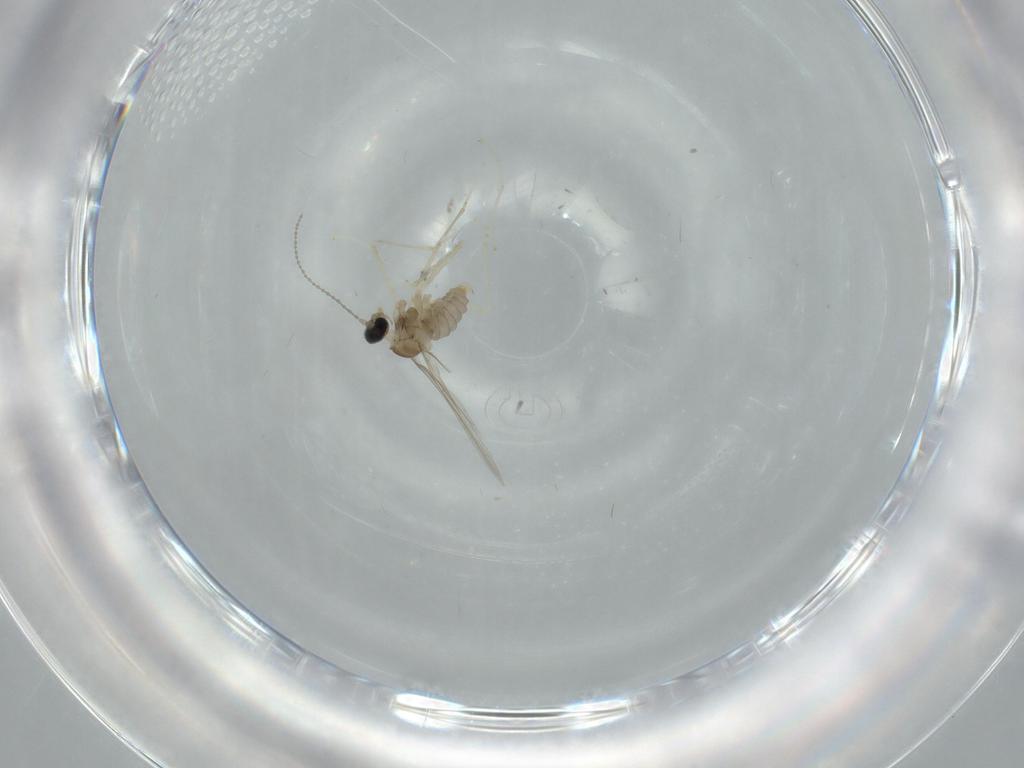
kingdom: Animalia
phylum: Arthropoda
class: Insecta
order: Diptera
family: Cecidomyiidae
